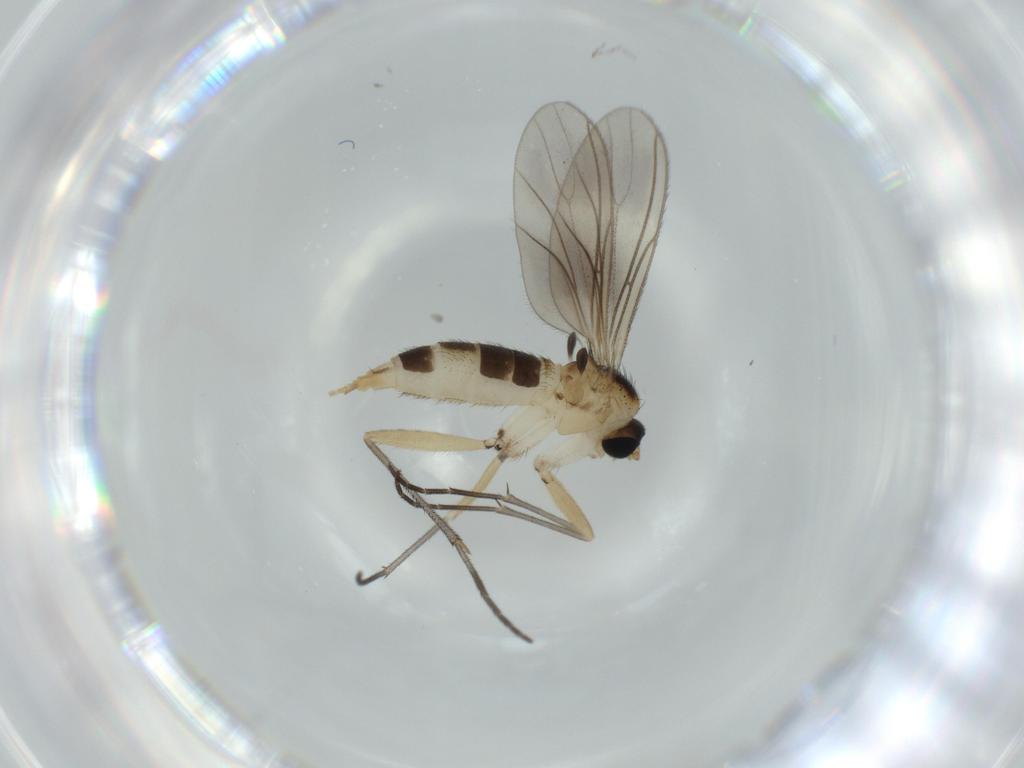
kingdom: Animalia
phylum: Arthropoda
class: Insecta
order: Diptera
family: Sciaridae
